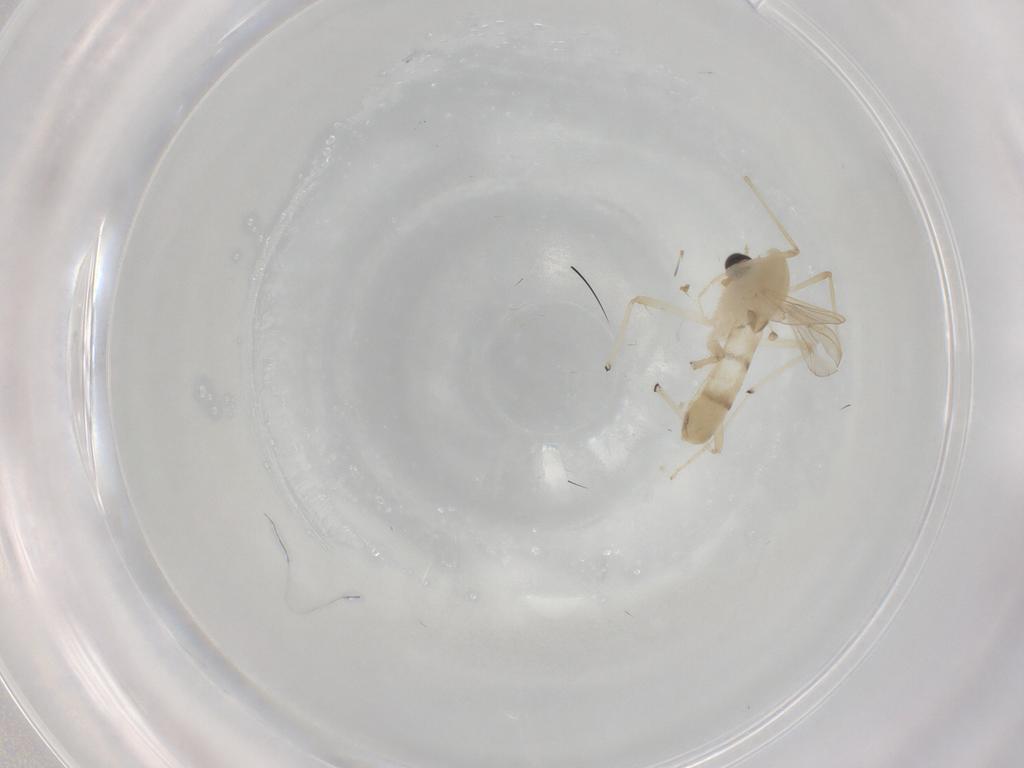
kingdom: Animalia
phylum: Arthropoda
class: Insecta
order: Diptera
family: Chironomidae
